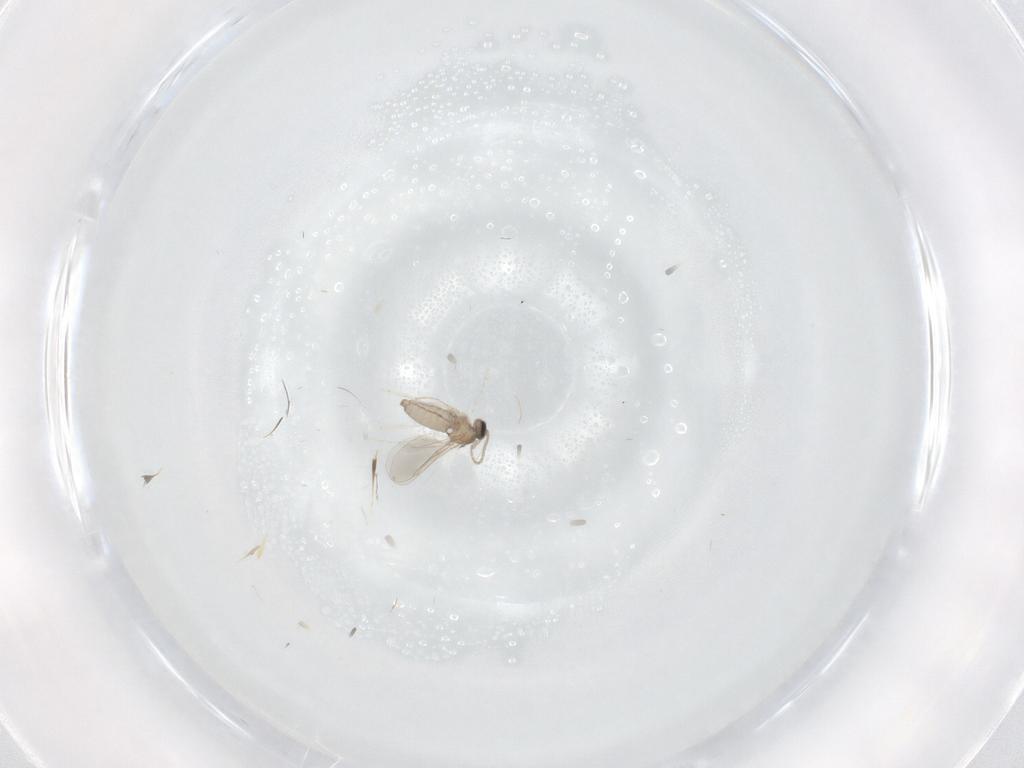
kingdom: Animalia
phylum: Arthropoda
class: Insecta
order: Diptera
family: Cecidomyiidae
